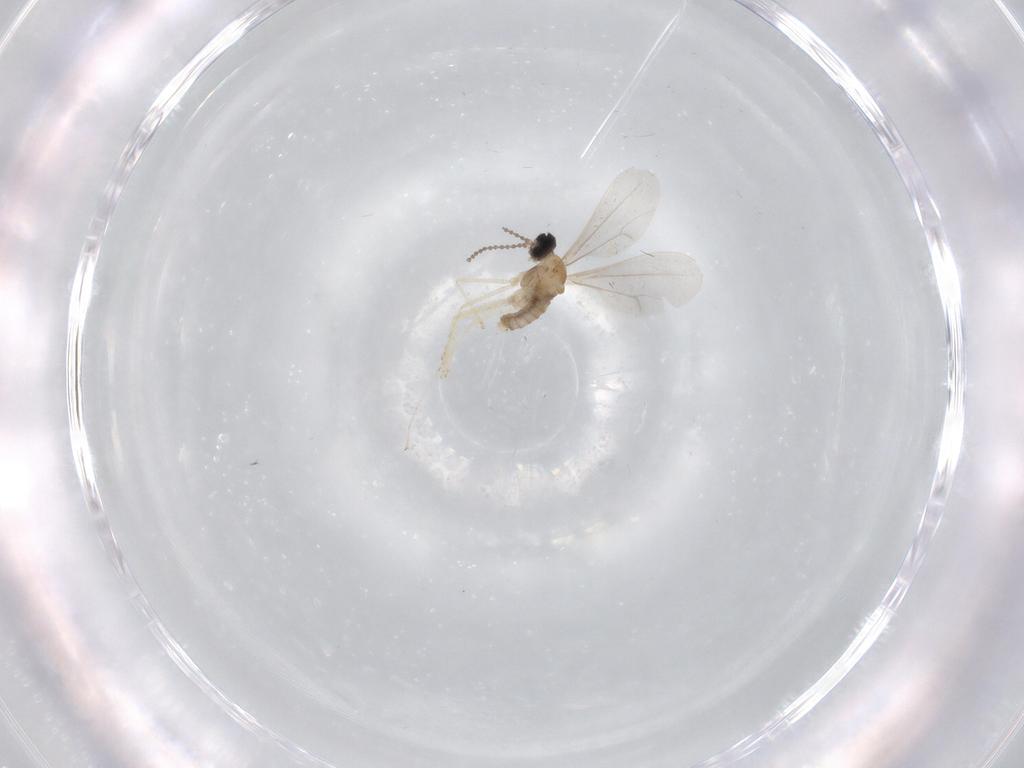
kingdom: Animalia
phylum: Arthropoda
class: Insecta
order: Diptera
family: Cecidomyiidae
